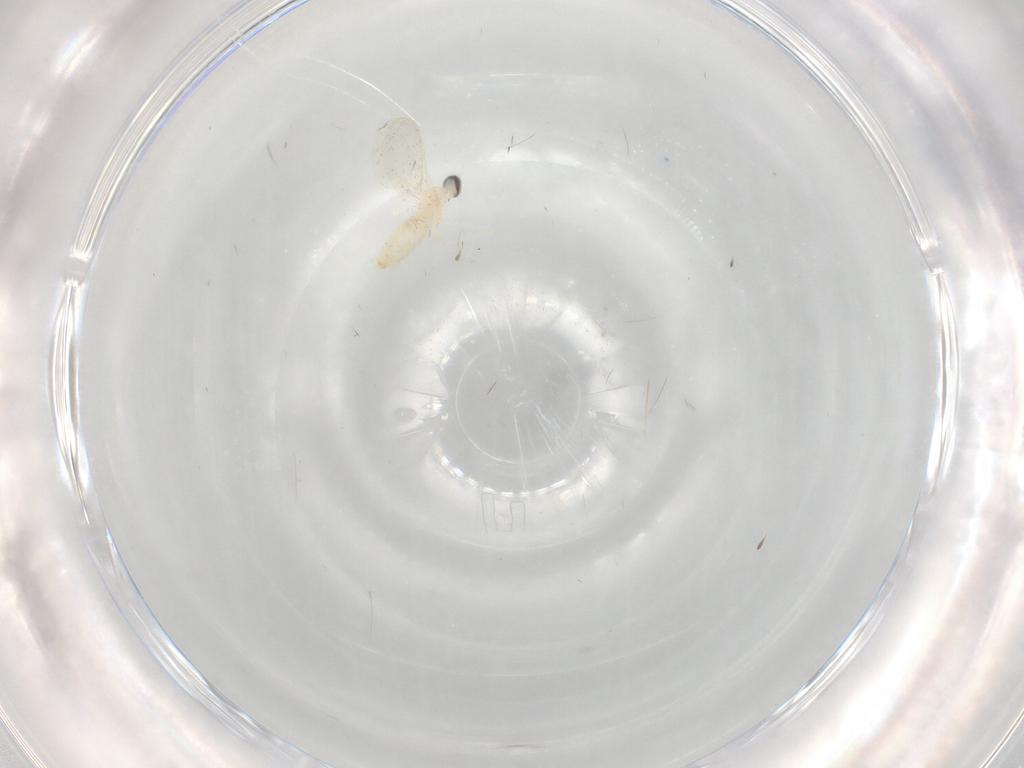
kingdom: Animalia
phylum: Arthropoda
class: Insecta
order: Diptera
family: Cecidomyiidae
